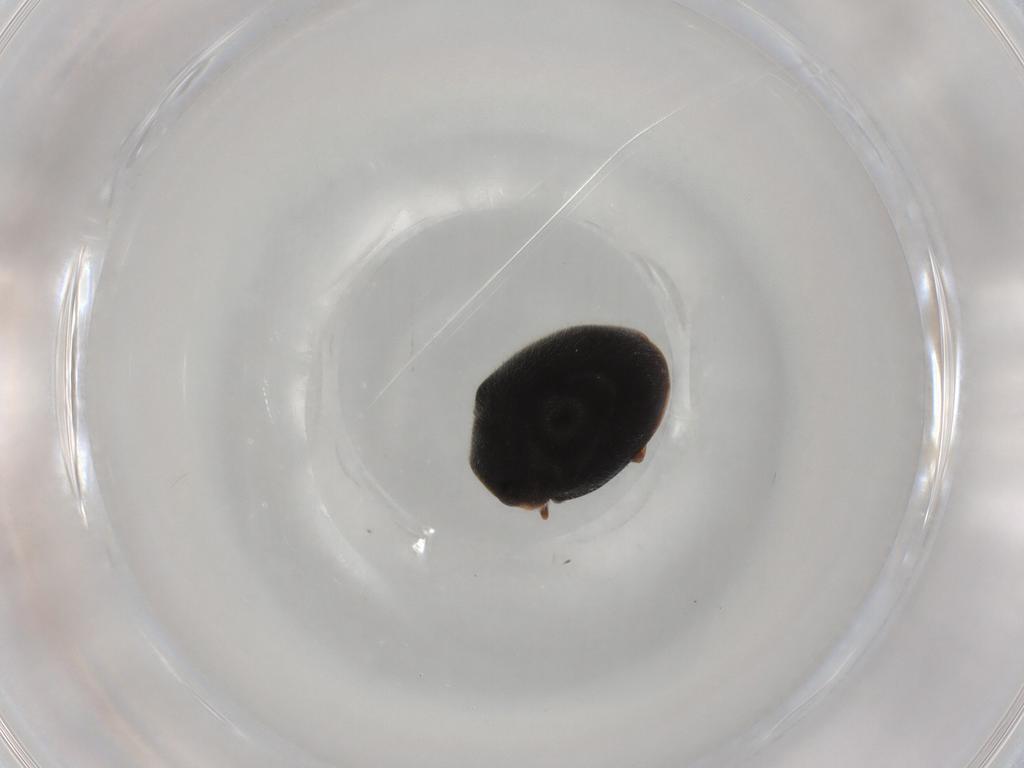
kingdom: Animalia
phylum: Arthropoda
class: Insecta
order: Coleoptera
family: Coccinellidae
